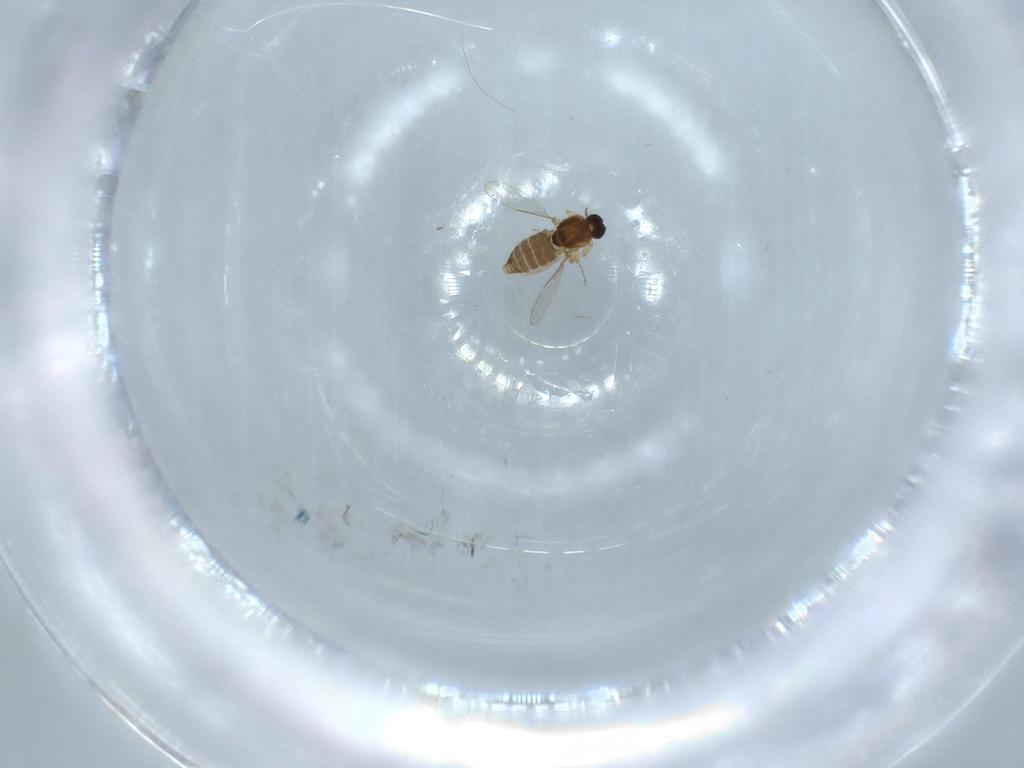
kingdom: Animalia
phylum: Arthropoda
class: Insecta
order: Diptera
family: Ceratopogonidae
